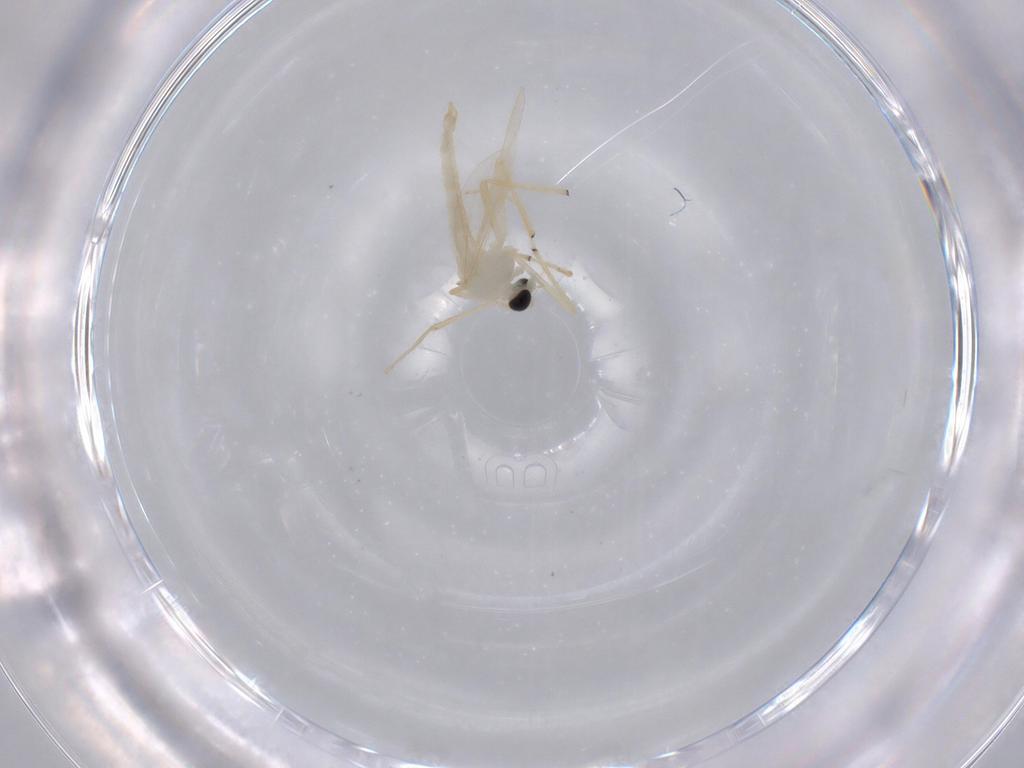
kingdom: Animalia
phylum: Arthropoda
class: Insecta
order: Diptera
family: Chironomidae
